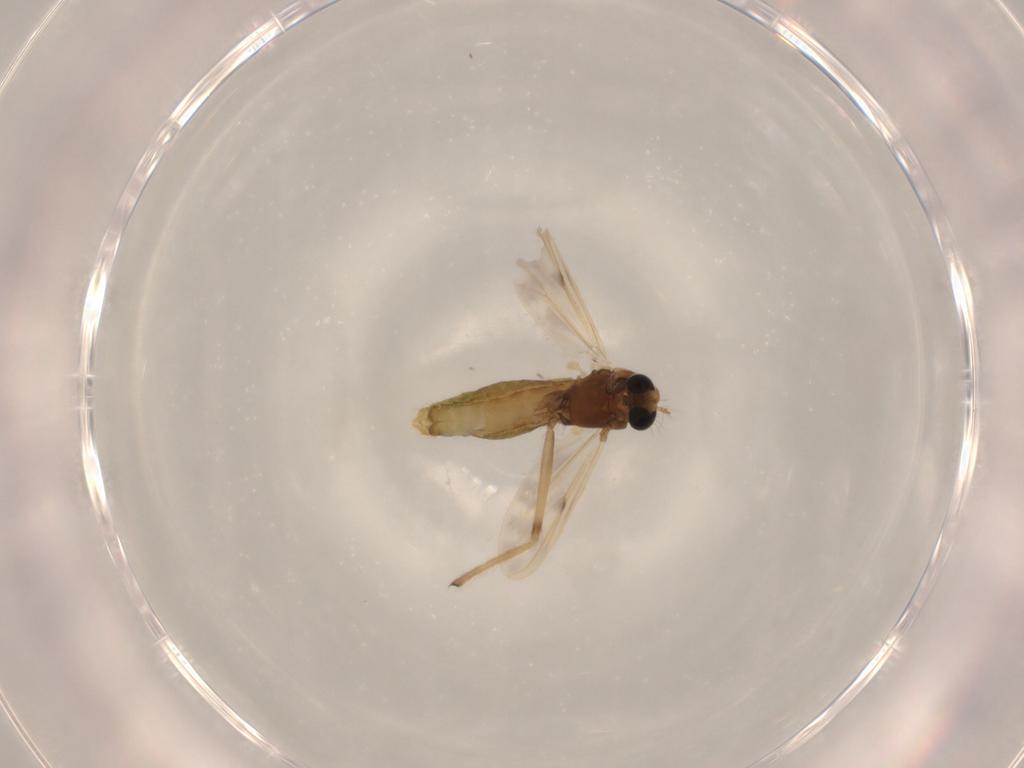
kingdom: Animalia
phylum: Arthropoda
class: Insecta
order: Diptera
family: Chironomidae
